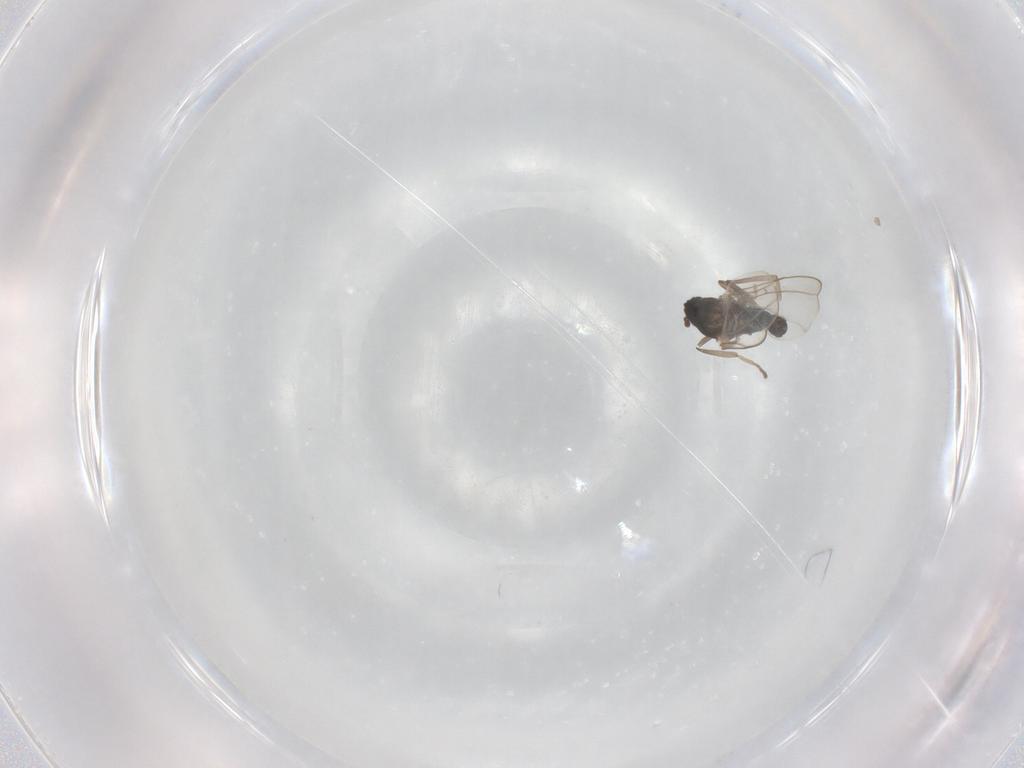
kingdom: Animalia
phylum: Arthropoda
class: Insecta
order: Diptera
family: Cecidomyiidae
